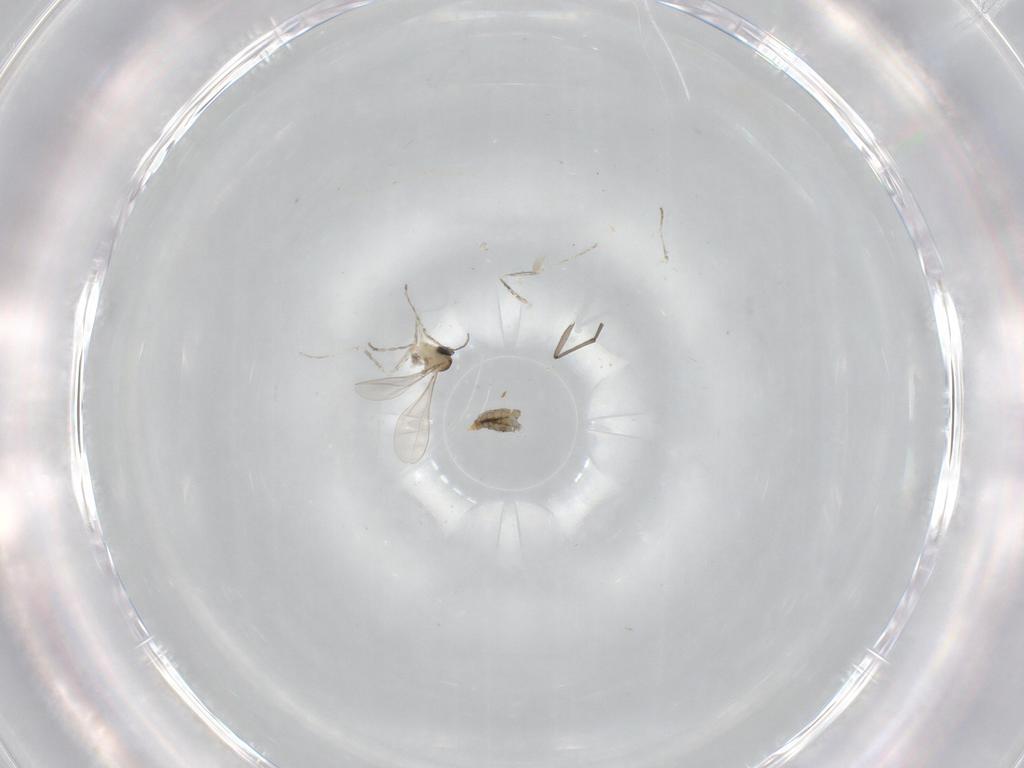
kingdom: Animalia
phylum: Arthropoda
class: Insecta
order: Diptera
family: Cecidomyiidae
